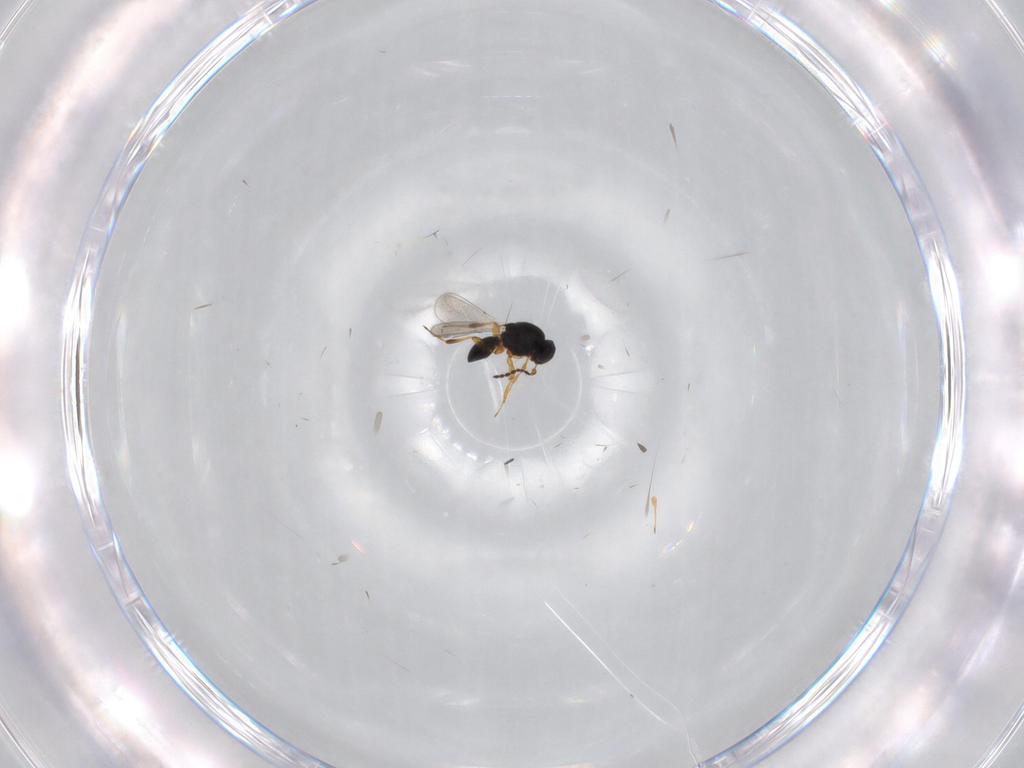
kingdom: Animalia
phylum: Arthropoda
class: Insecta
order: Hymenoptera
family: Scelionidae
